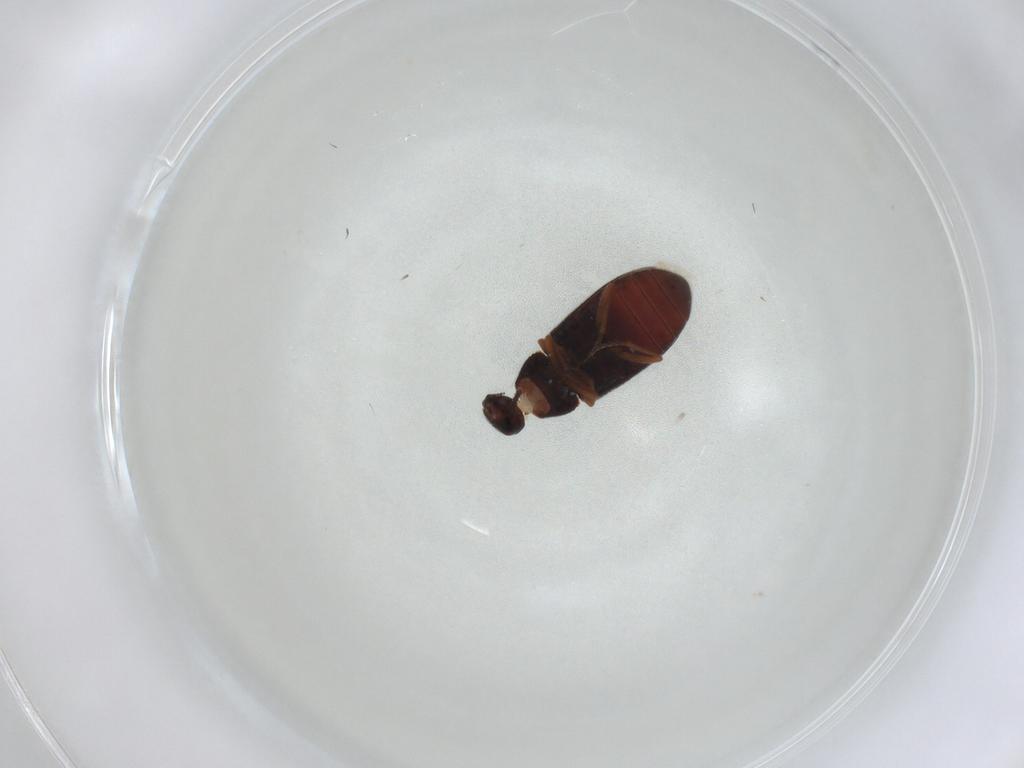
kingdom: Animalia
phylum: Arthropoda
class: Insecta
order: Coleoptera
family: Rhadalidae
